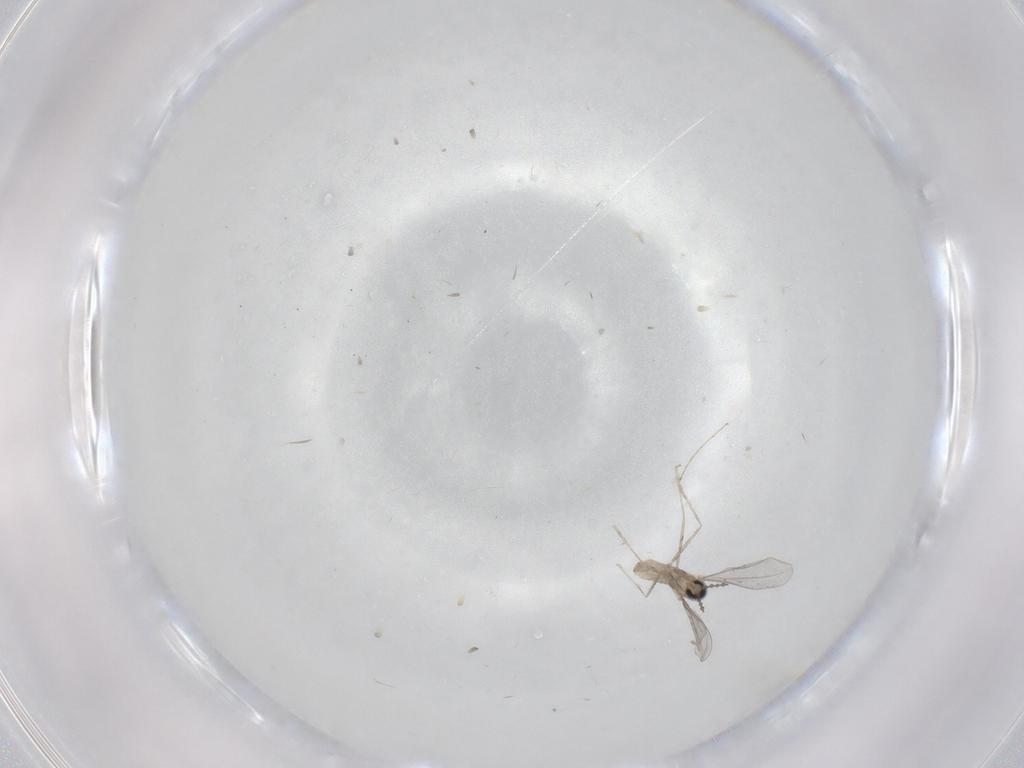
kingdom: Animalia
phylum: Arthropoda
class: Insecta
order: Diptera
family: Cecidomyiidae
